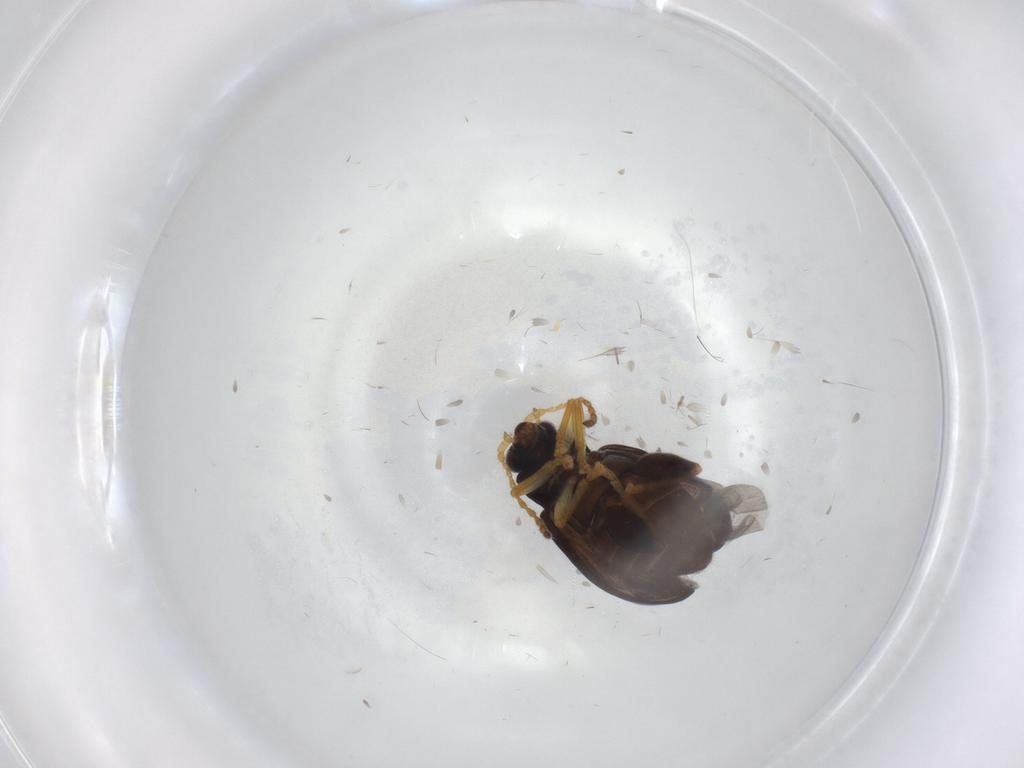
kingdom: Animalia
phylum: Arthropoda
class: Insecta
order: Coleoptera
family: Chrysomelidae
